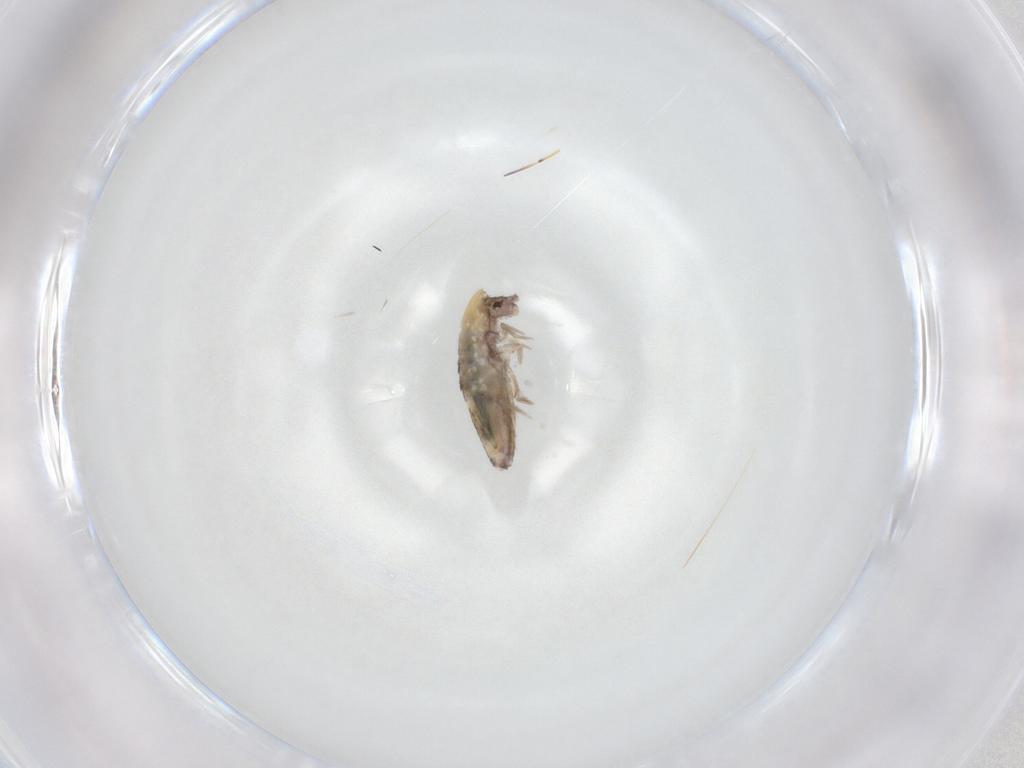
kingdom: Animalia
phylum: Arthropoda
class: Collembola
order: Entomobryomorpha
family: Entomobryidae
